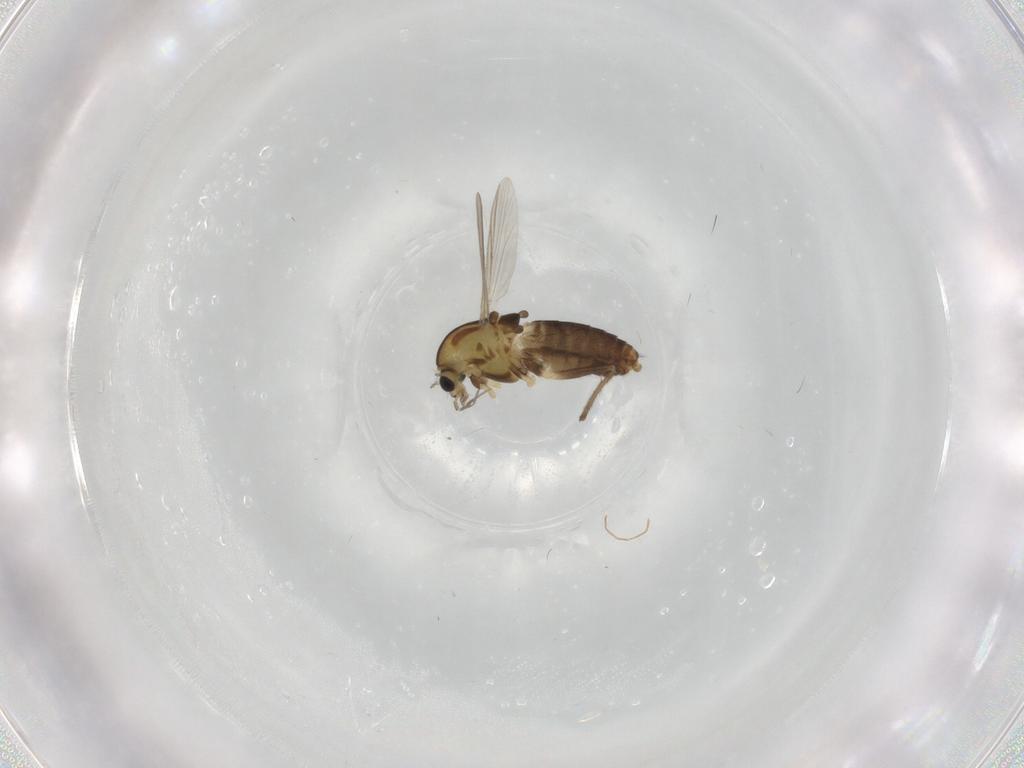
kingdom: Animalia
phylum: Arthropoda
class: Insecta
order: Diptera
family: Chironomidae
